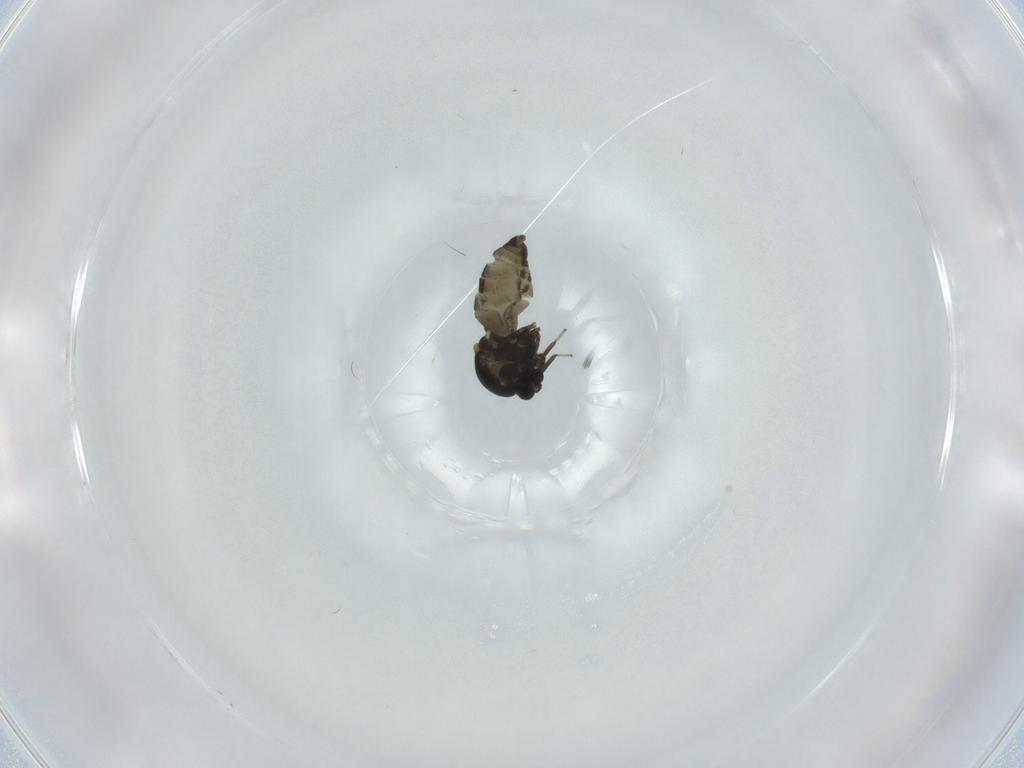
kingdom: Animalia
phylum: Arthropoda
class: Insecta
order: Diptera
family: Ceratopogonidae
